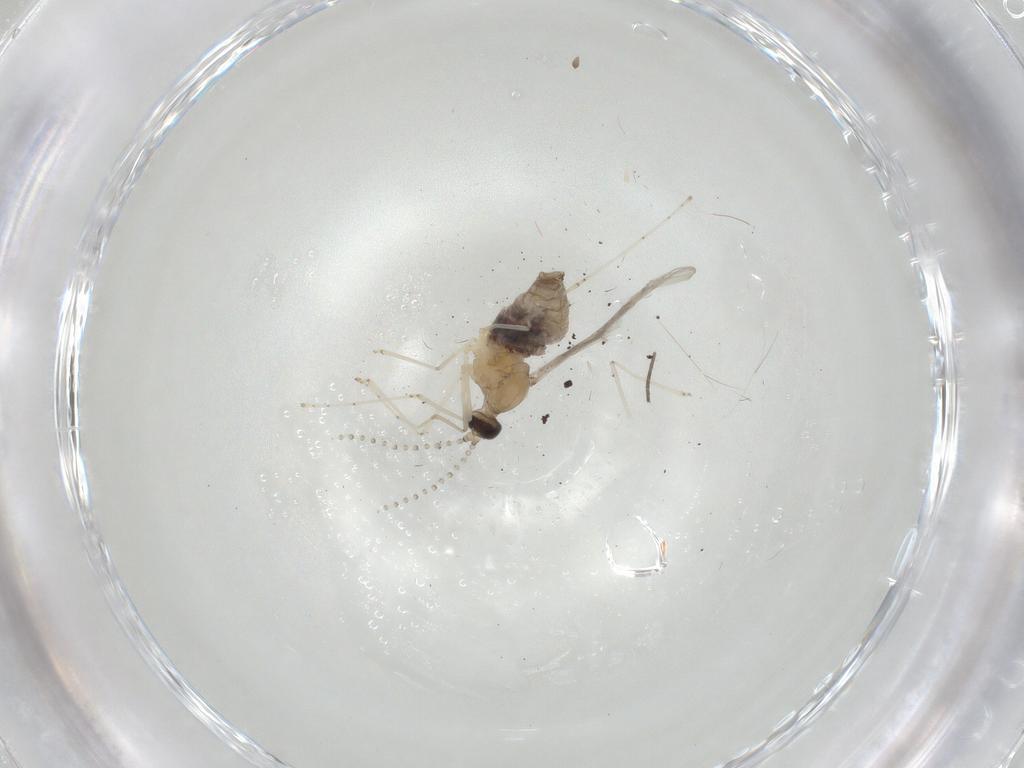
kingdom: Animalia
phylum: Arthropoda
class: Insecta
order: Diptera
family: Cecidomyiidae
